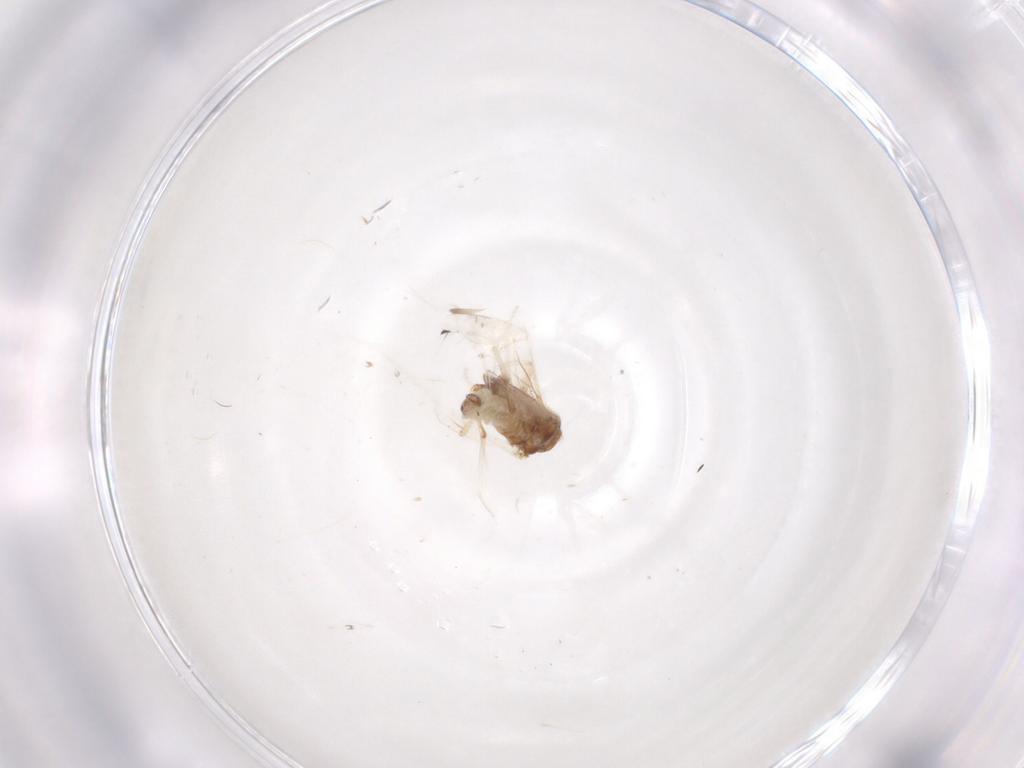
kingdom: Animalia
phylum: Arthropoda
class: Insecta
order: Neuroptera
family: Coniopterygidae
